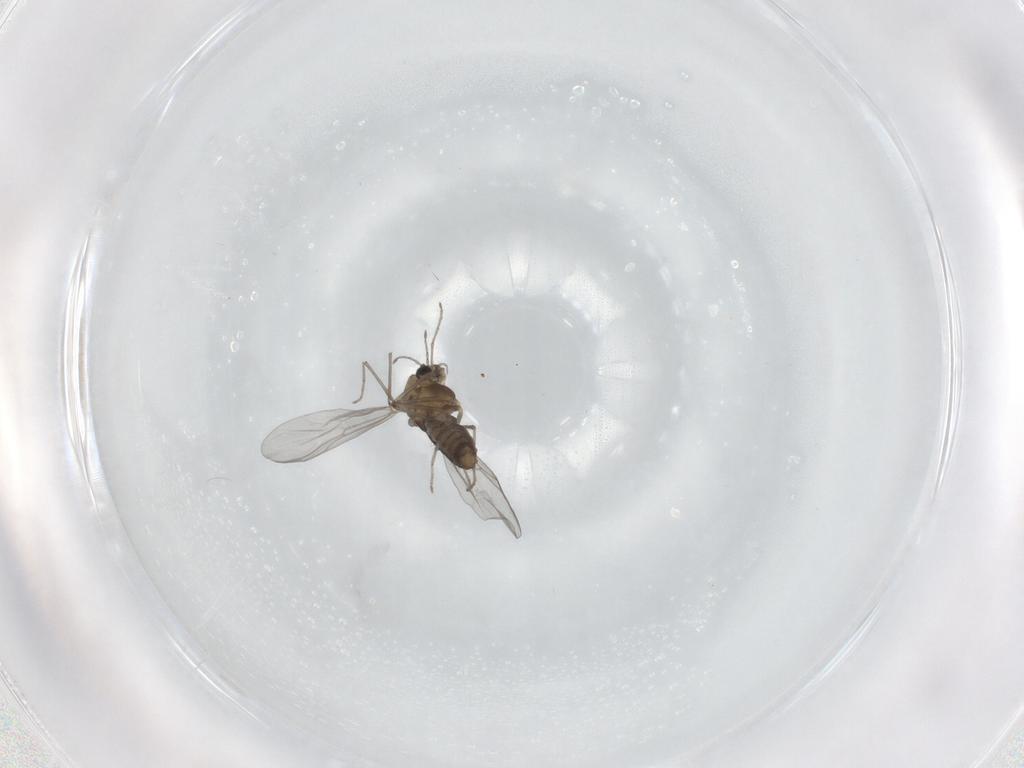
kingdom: Animalia
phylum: Arthropoda
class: Insecta
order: Diptera
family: Chironomidae
